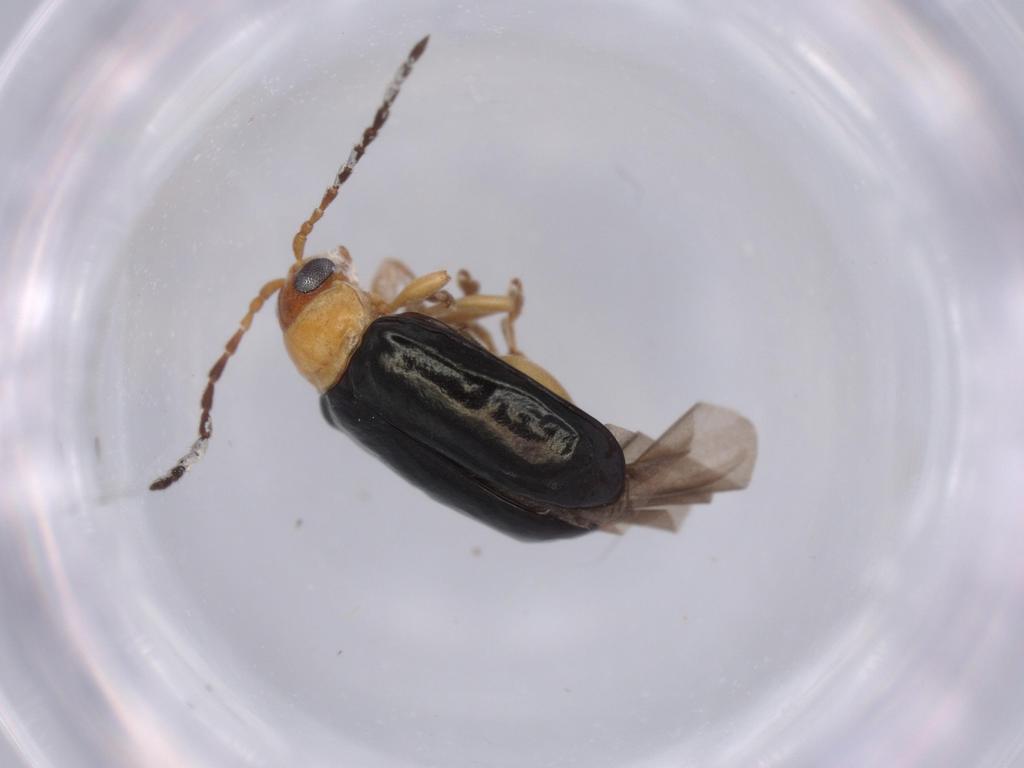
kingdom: Animalia
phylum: Arthropoda
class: Insecta
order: Coleoptera
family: Chrysomelidae
